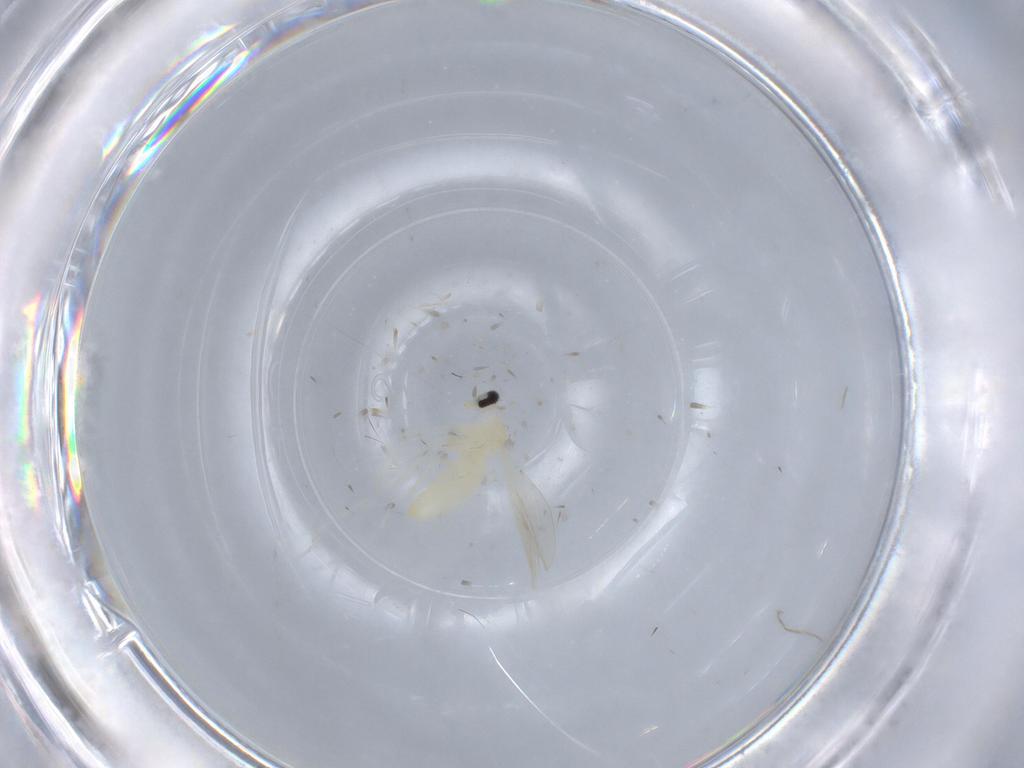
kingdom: Animalia
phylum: Arthropoda
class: Insecta
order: Diptera
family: Cecidomyiidae
